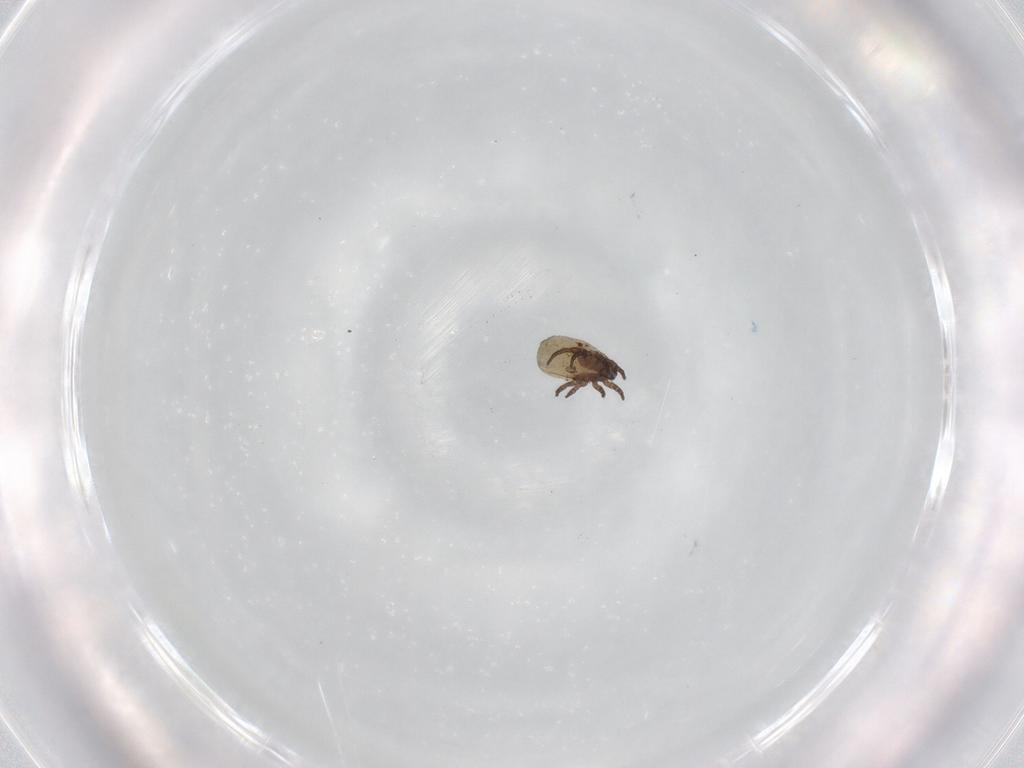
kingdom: Animalia
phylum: Arthropoda
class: Arachnida
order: Sarcoptiformes
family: Crotoniidae
